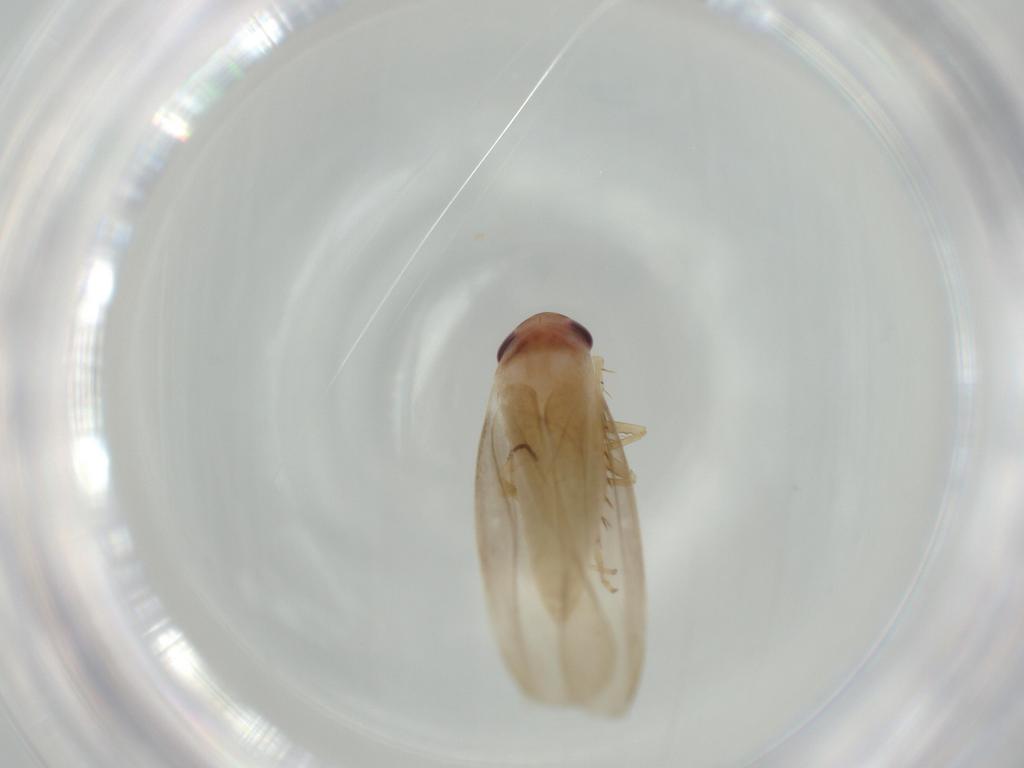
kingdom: Animalia
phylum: Arthropoda
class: Insecta
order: Hemiptera
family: Cicadellidae
